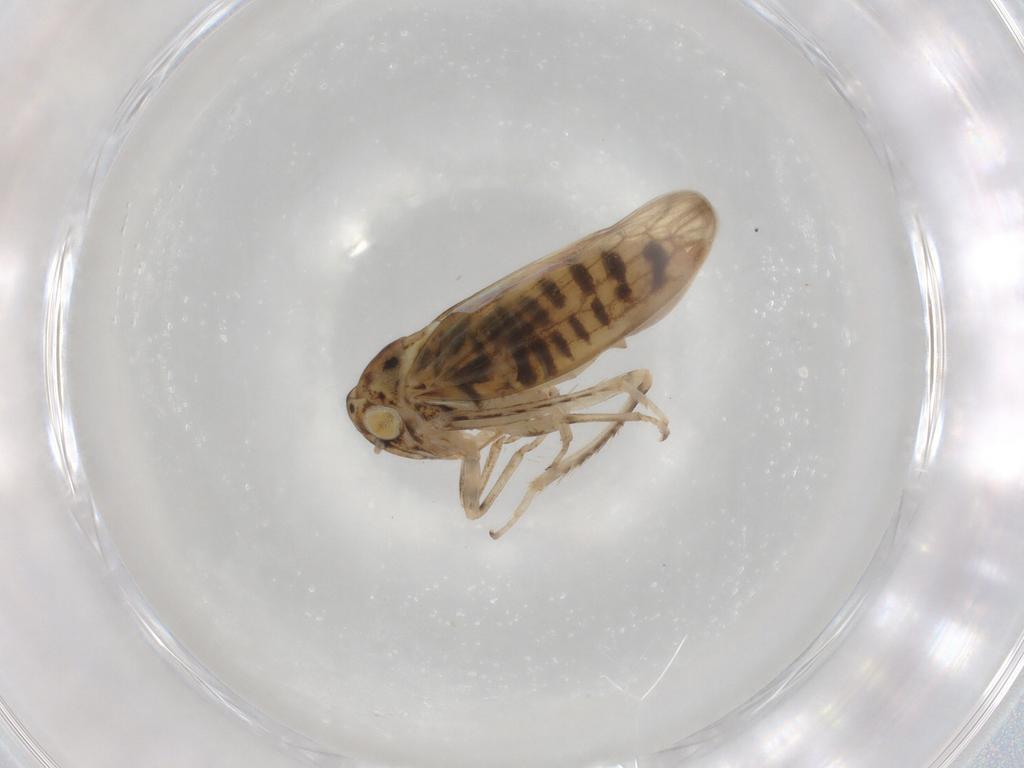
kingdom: Animalia
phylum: Arthropoda
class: Insecta
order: Hemiptera
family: Cicadellidae
